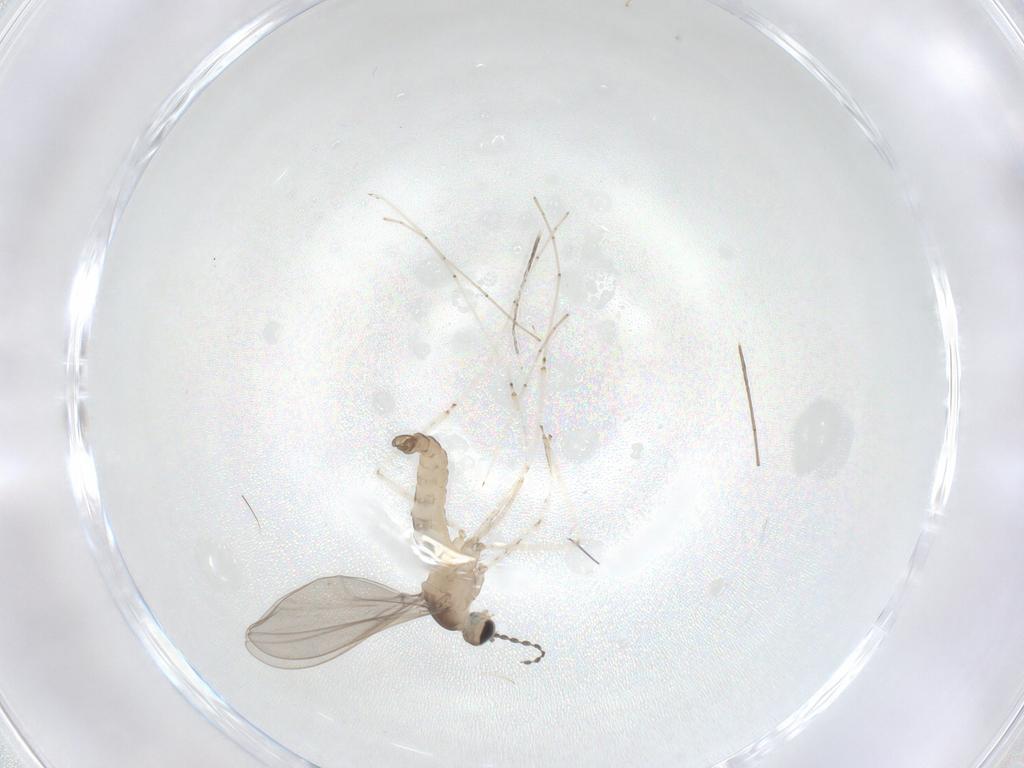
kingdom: Animalia
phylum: Arthropoda
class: Insecta
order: Diptera
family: Cecidomyiidae
